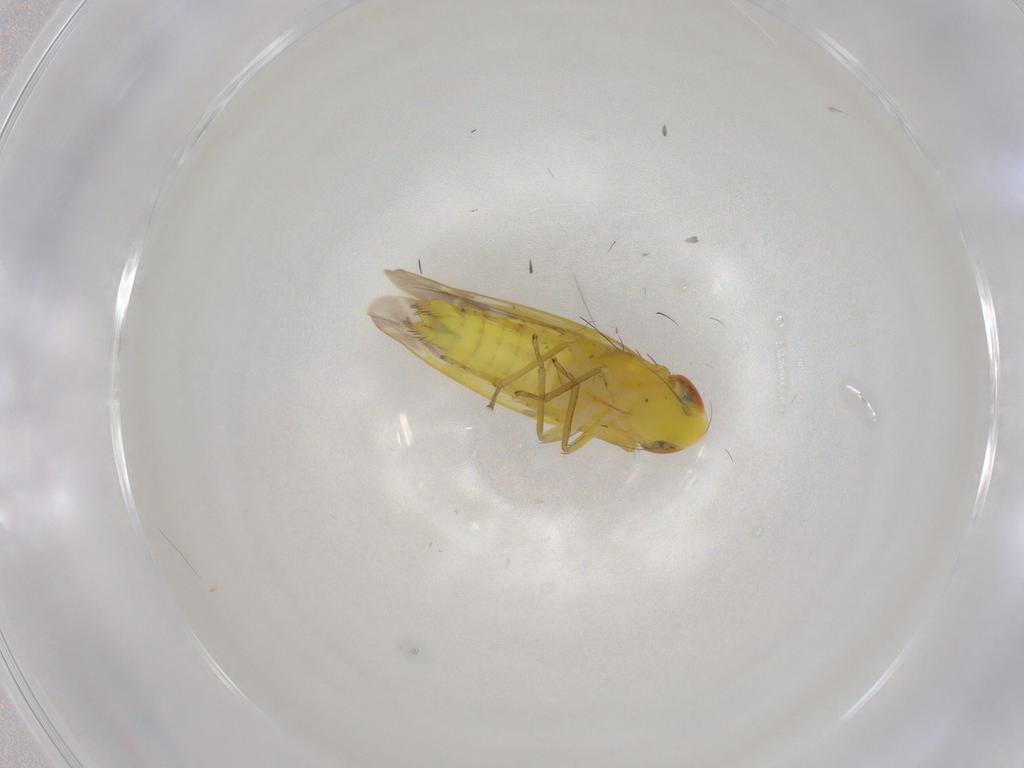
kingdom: Animalia
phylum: Arthropoda
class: Insecta
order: Hemiptera
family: Cicadellidae
